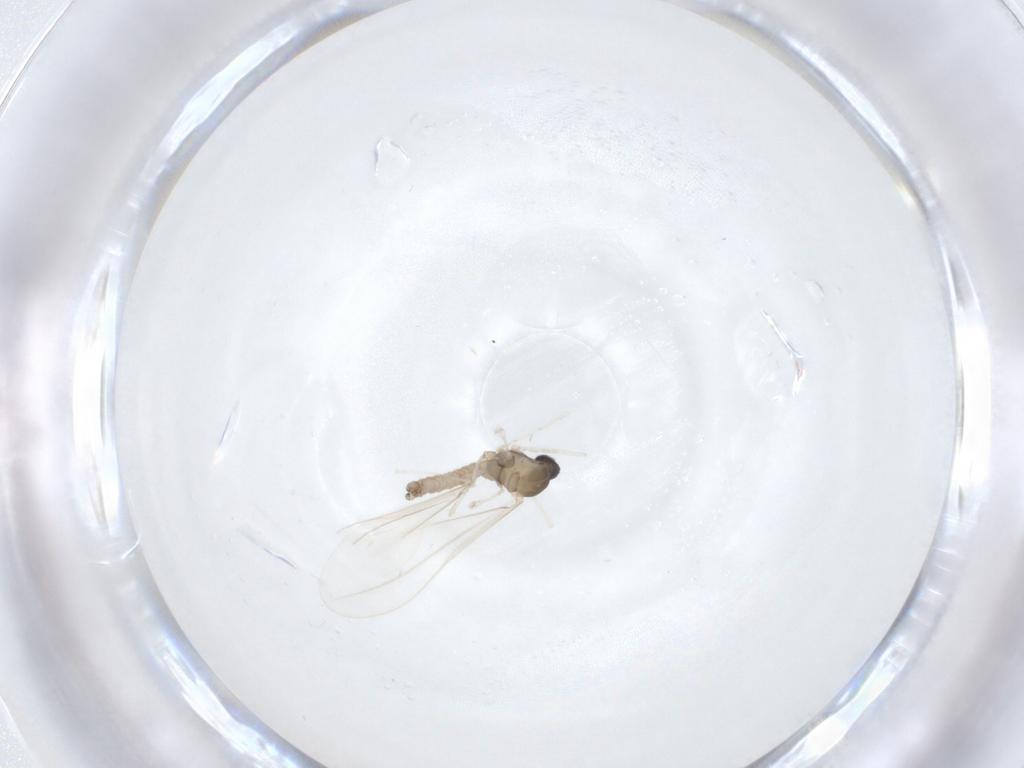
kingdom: Animalia
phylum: Arthropoda
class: Insecta
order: Diptera
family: Cecidomyiidae
